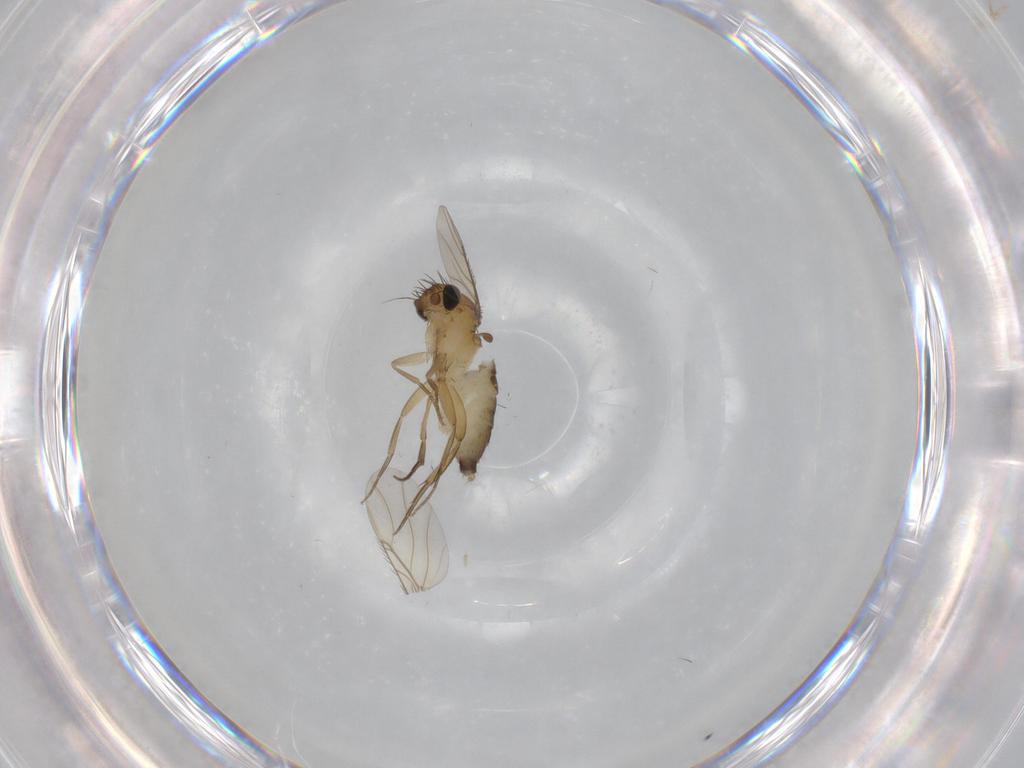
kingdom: Animalia
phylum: Arthropoda
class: Insecta
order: Diptera
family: Phoridae
